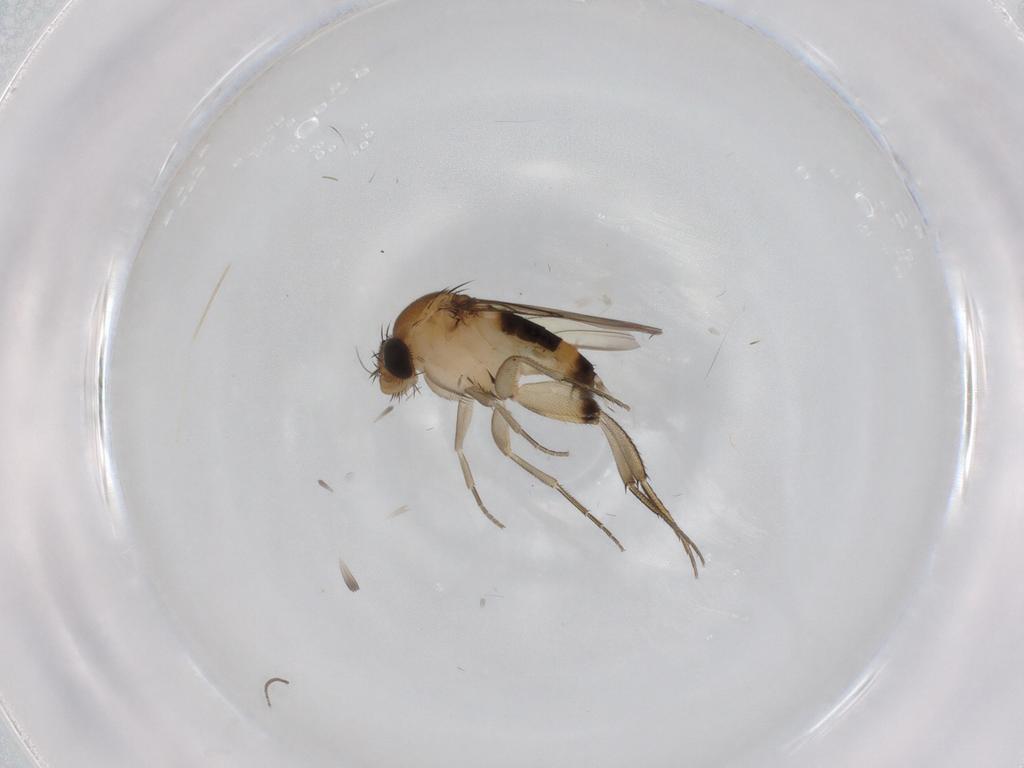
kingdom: Animalia
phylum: Arthropoda
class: Insecta
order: Diptera
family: Phoridae
